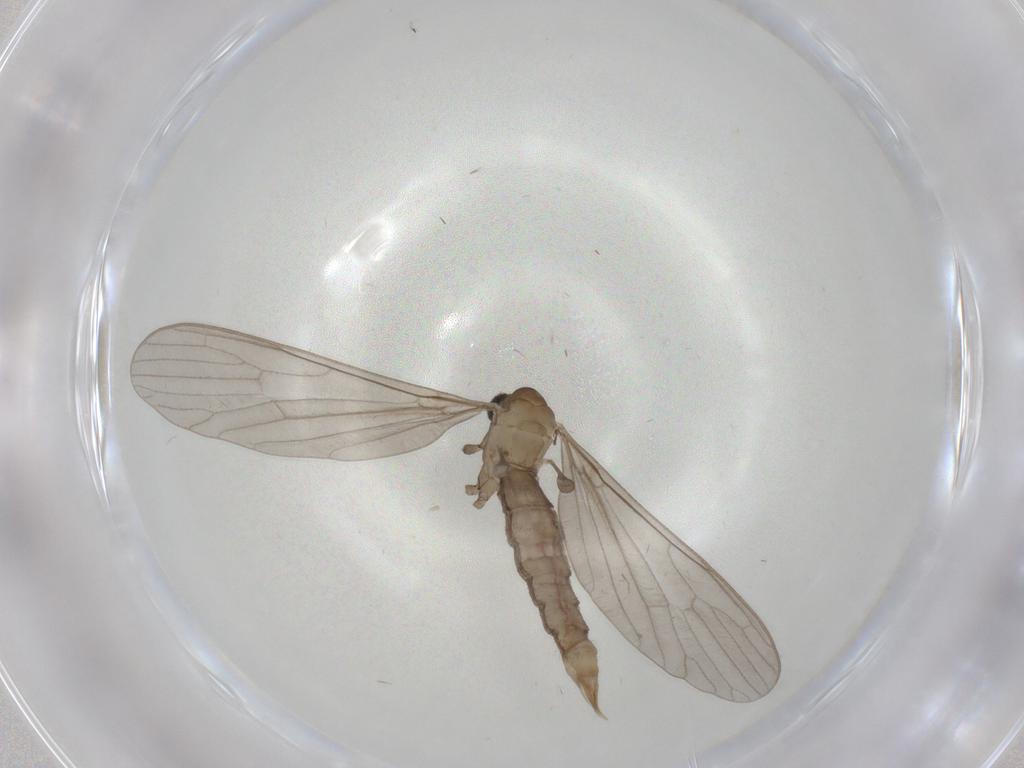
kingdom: Animalia
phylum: Arthropoda
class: Insecta
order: Diptera
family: Limoniidae
